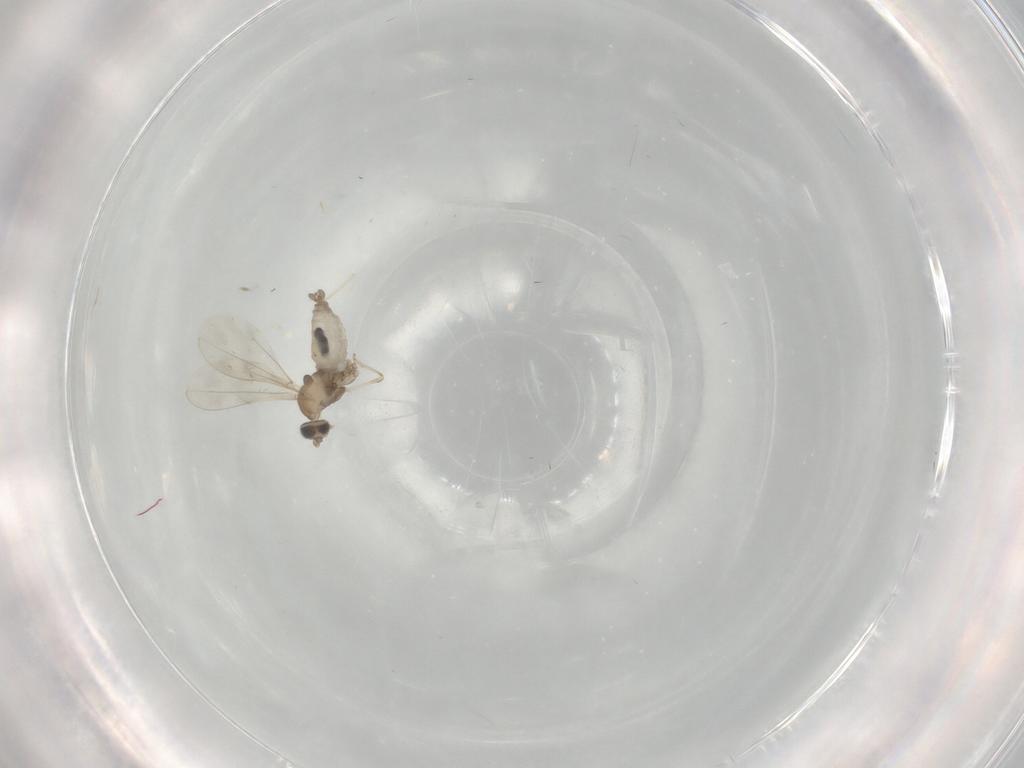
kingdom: Animalia
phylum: Arthropoda
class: Insecta
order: Diptera
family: Cecidomyiidae
